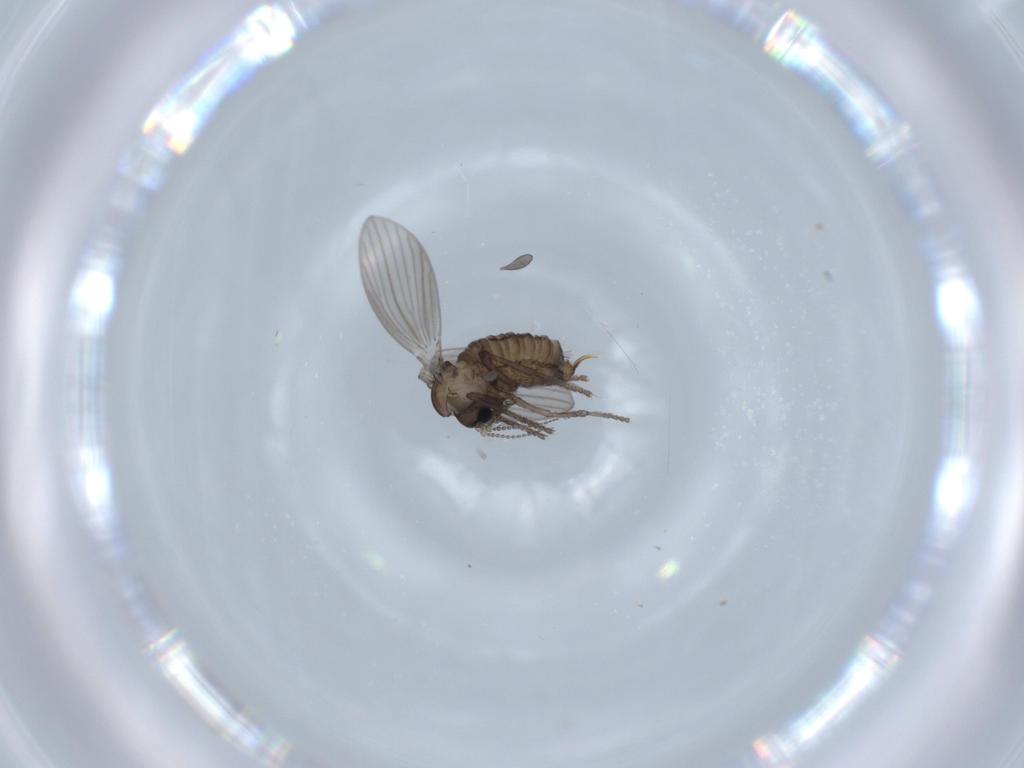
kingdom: Animalia
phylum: Arthropoda
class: Insecta
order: Diptera
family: Psychodidae
